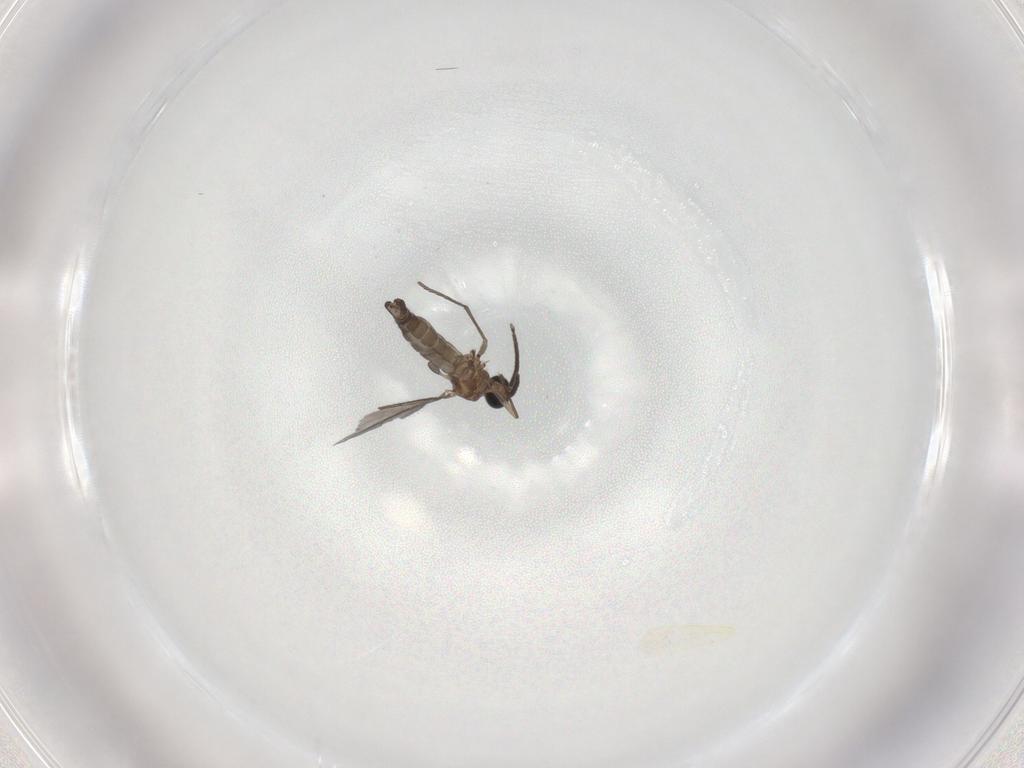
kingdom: Animalia
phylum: Arthropoda
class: Insecta
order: Diptera
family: Sciaridae
